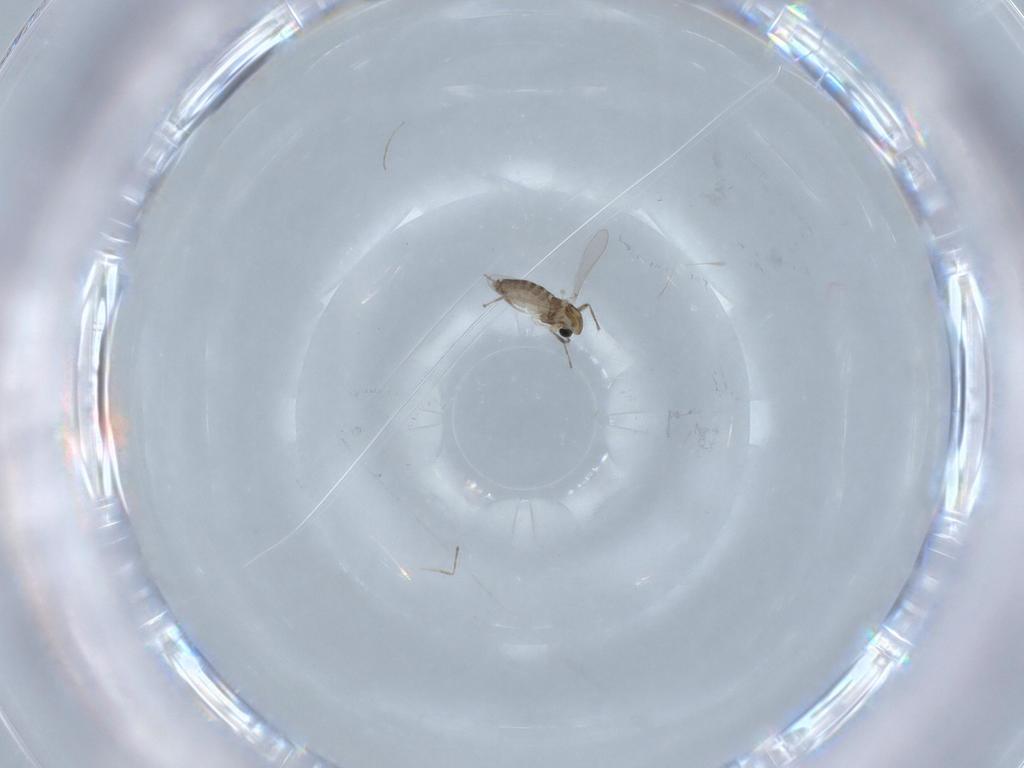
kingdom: Animalia
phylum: Arthropoda
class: Insecta
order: Diptera
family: Chironomidae
